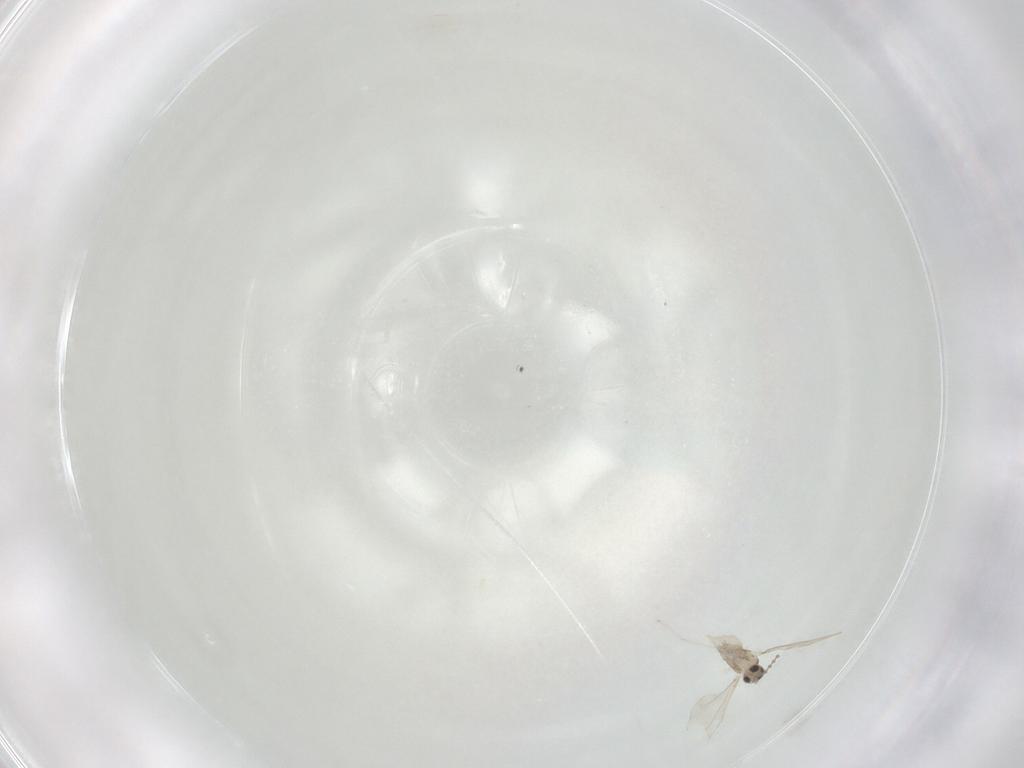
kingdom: Animalia
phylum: Arthropoda
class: Insecta
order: Diptera
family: Cecidomyiidae
